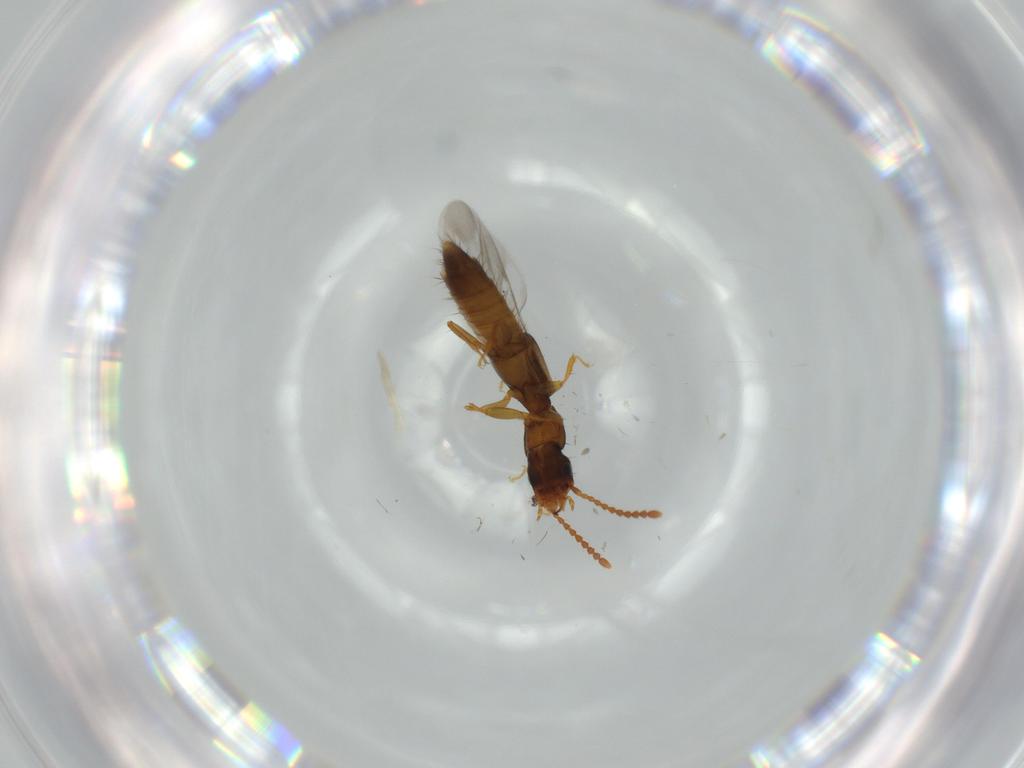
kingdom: Animalia
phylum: Arthropoda
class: Insecta
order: Coleoptera
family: Staphylinidae
